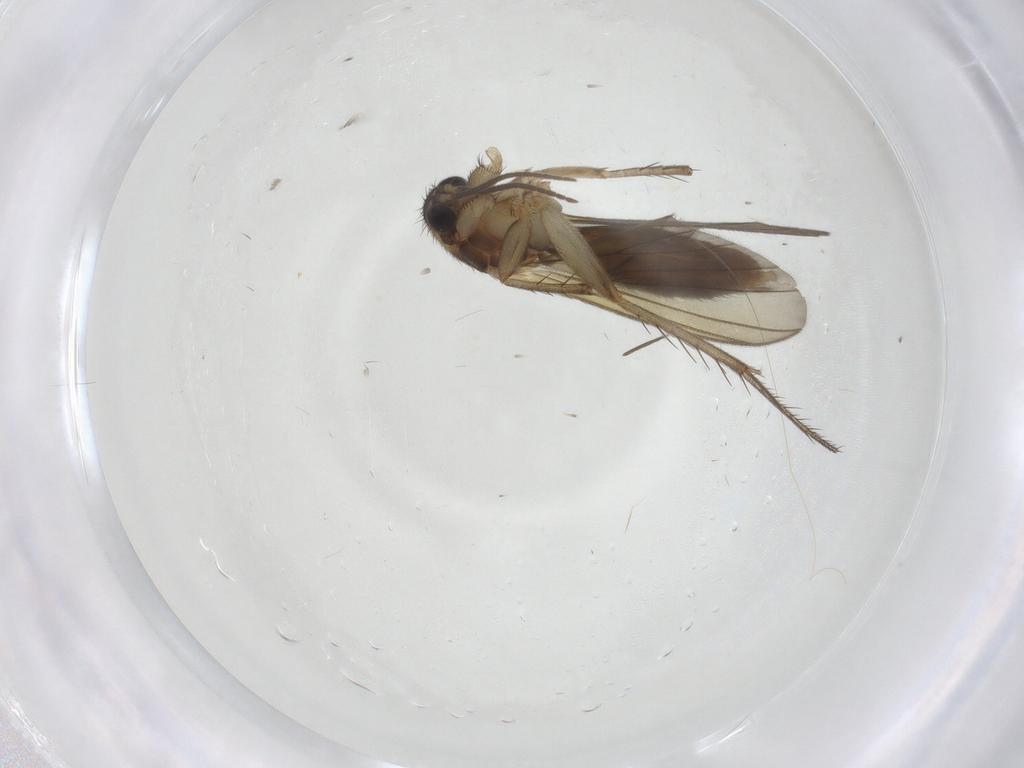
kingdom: Animalia
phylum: Arthropoda
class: Insecta
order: Diptera
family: Mycetophilidae
